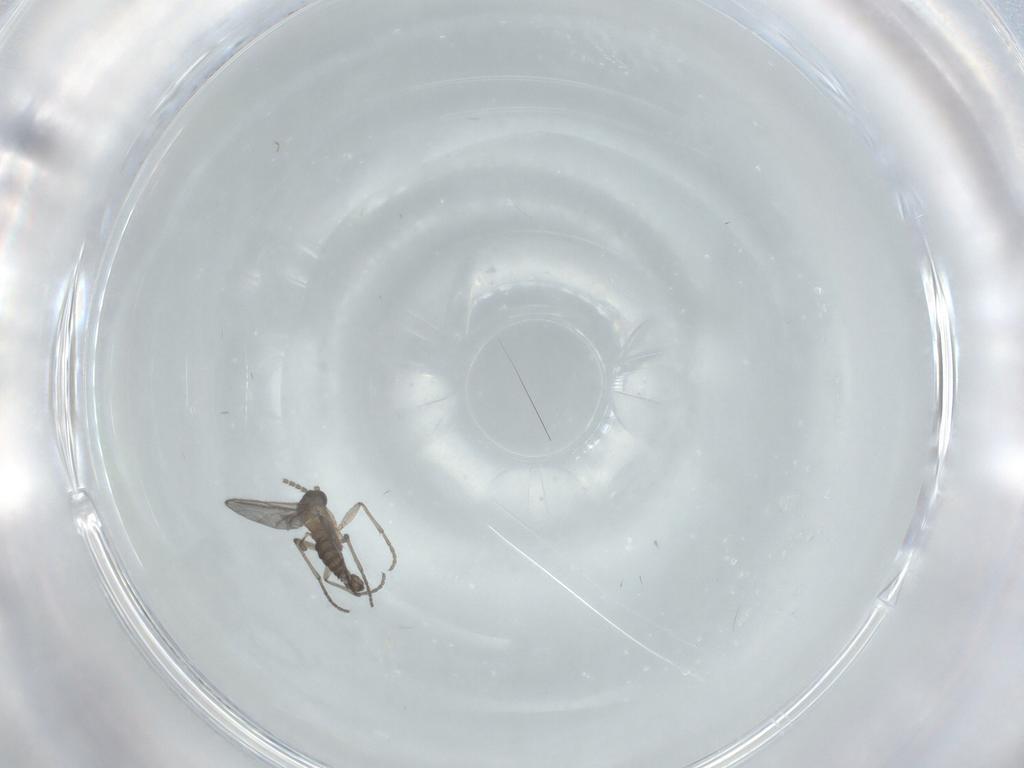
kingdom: Animalia
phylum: Arthropoda
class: Insecta
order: Diptera
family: Sciaridae
